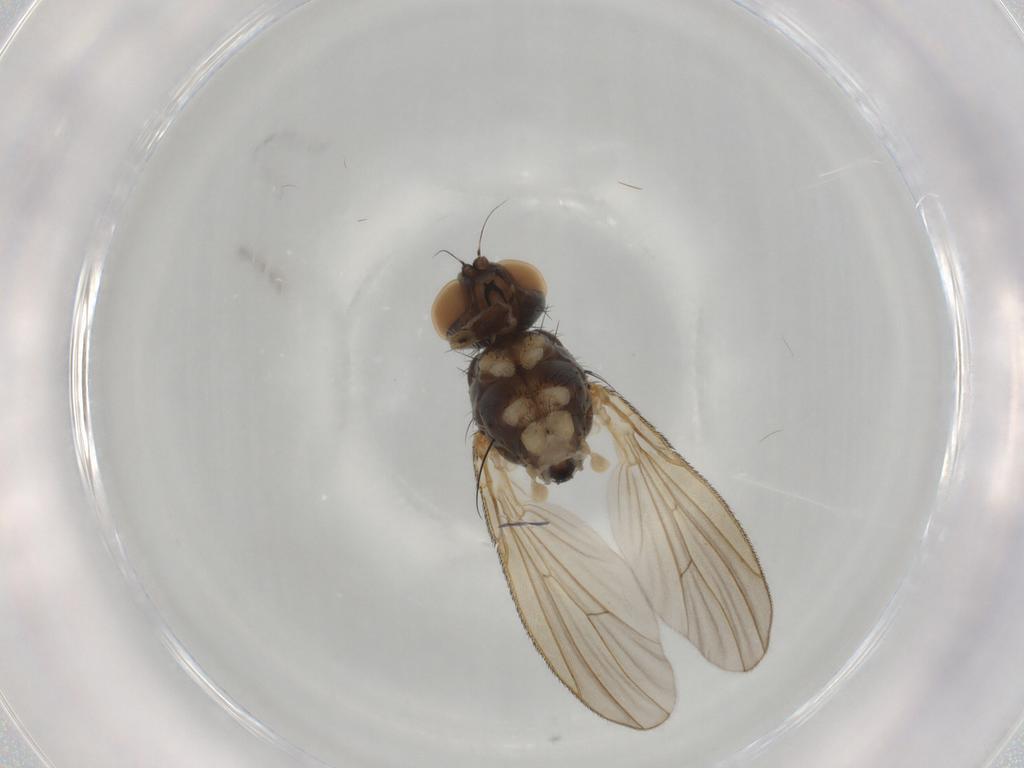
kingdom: Animalia
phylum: Arthropoda
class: Insecta
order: Diptera
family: Muscidae
